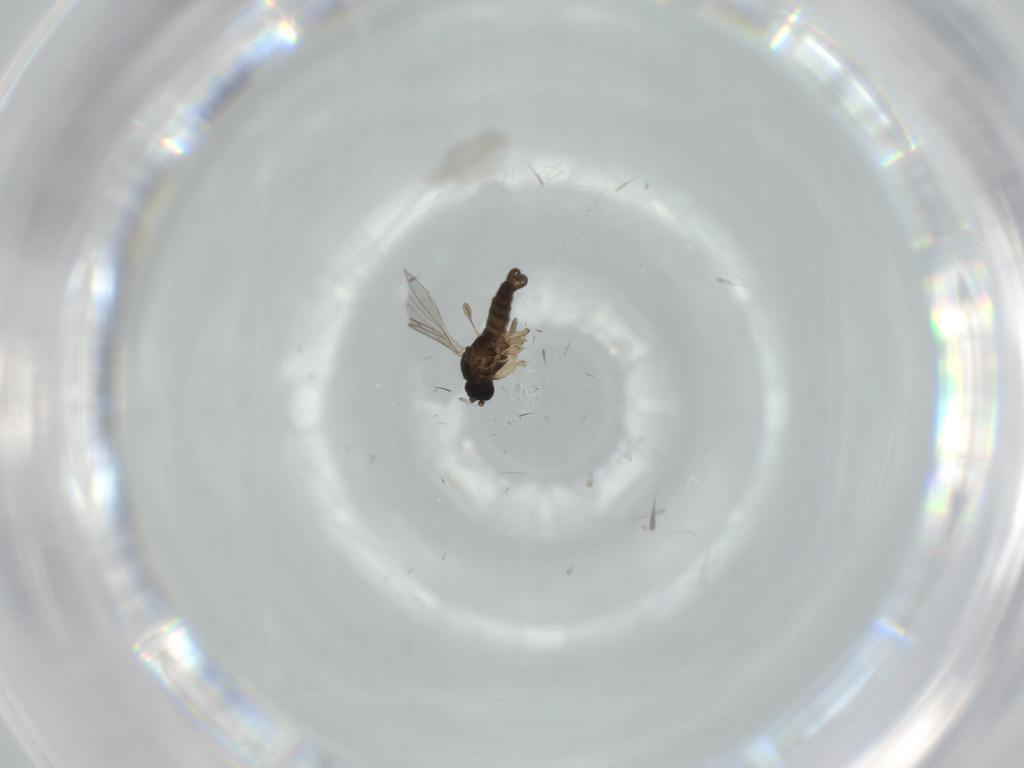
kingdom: Animalia
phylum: Arthropoda
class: Insecta
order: Diptera
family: Sciaridae
